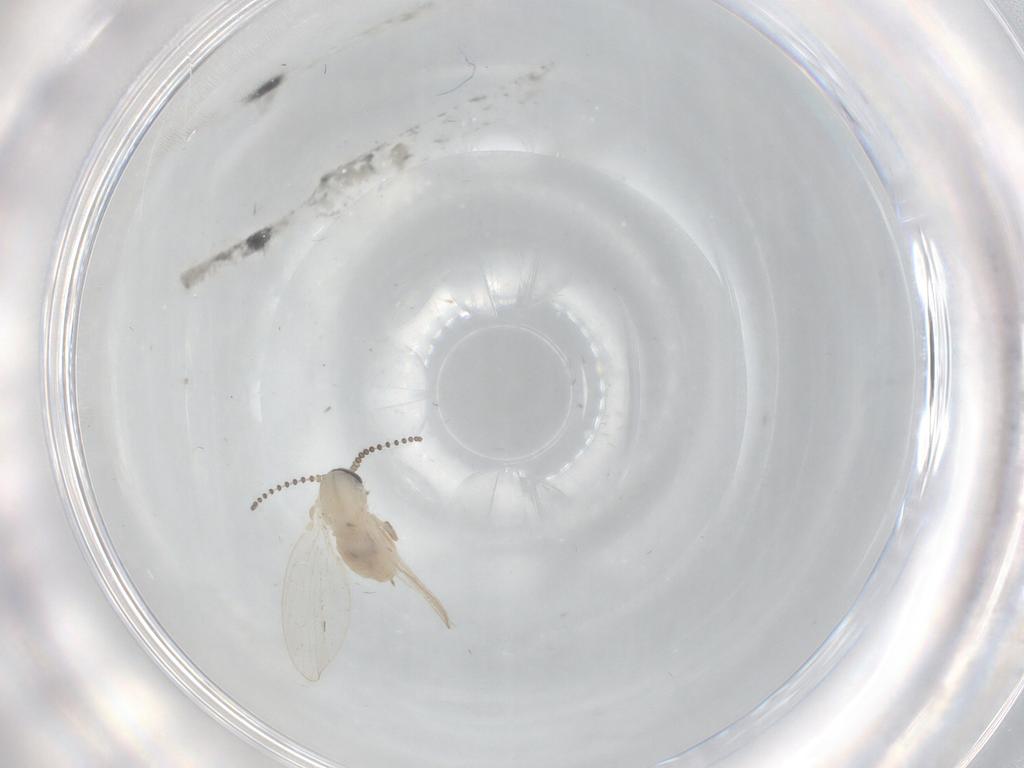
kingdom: Animalia
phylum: Arthropoda
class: Insecta
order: Diptera
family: Psychodidae
